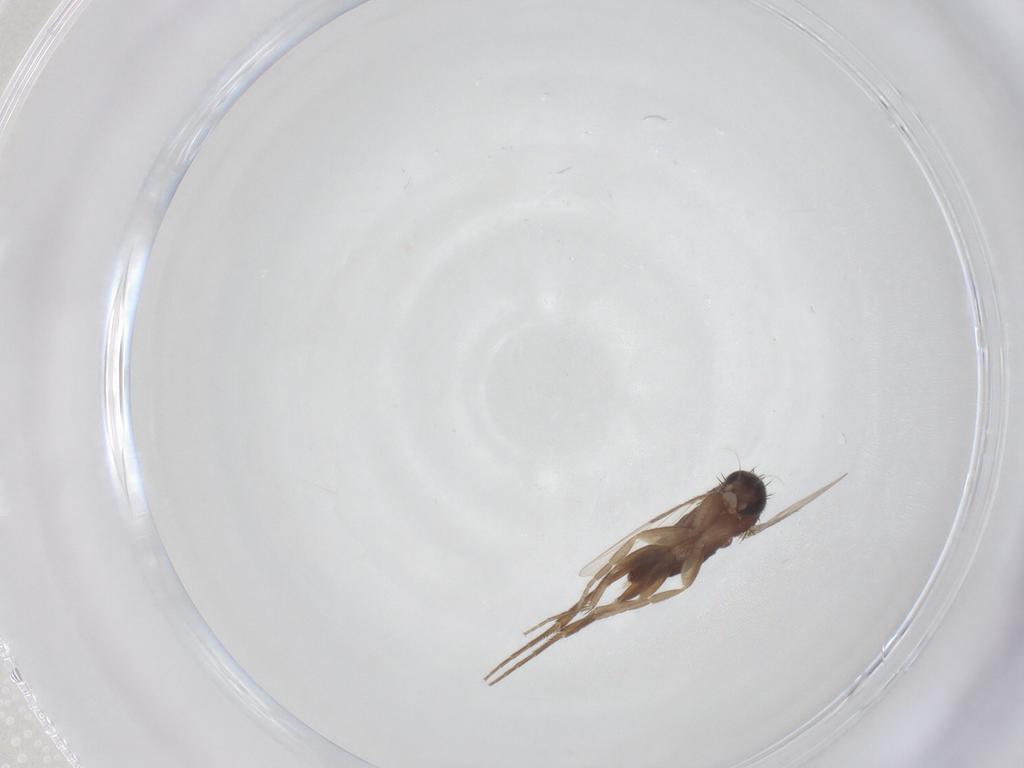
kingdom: Animalia
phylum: Arthropoda
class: Insecta
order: Diptera
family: Phoridae
